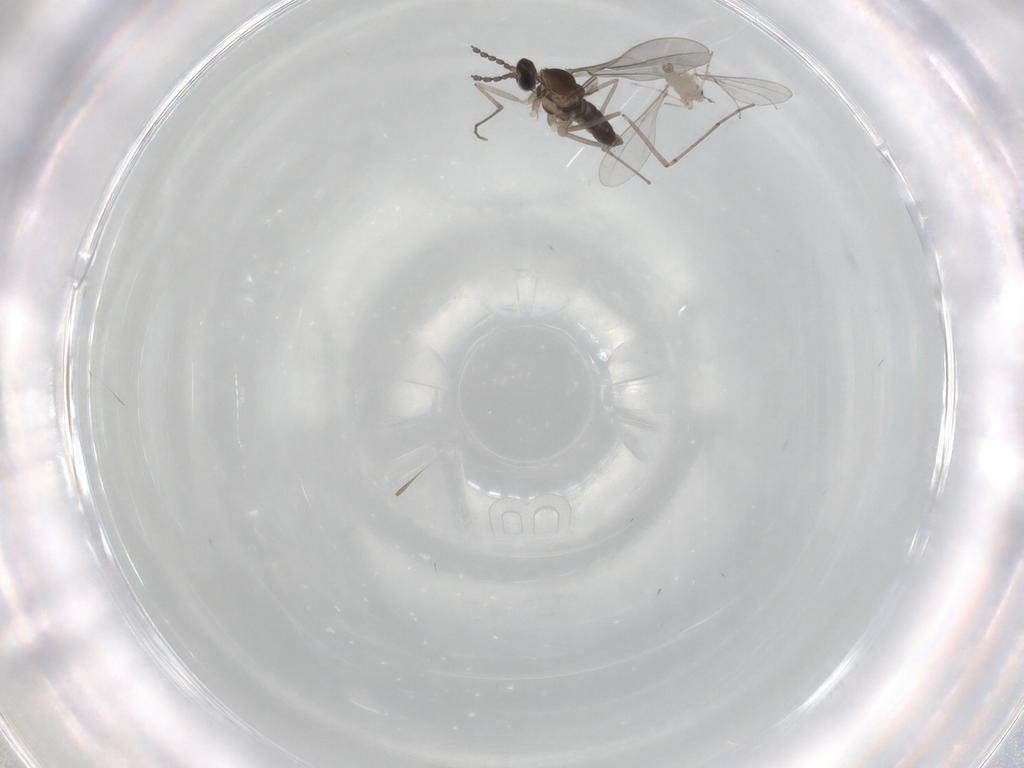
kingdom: Animalia
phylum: Arthropoda
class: Insecta
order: Diptera
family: Cecidomyiidae
